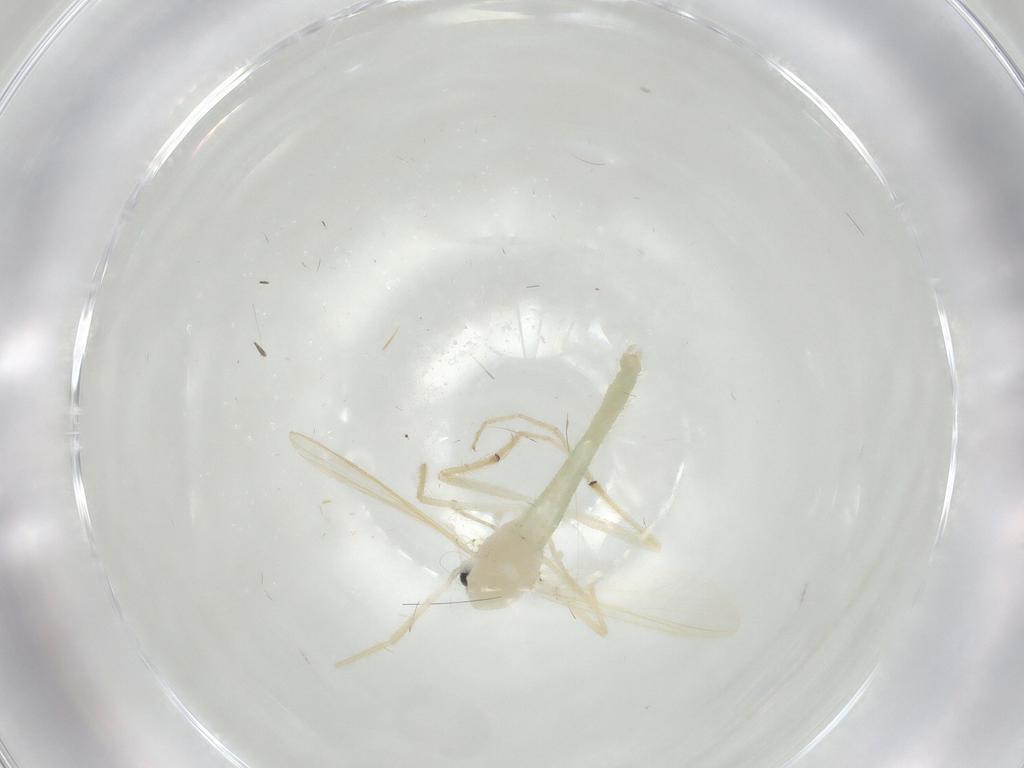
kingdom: Animalia
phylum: Arthropoda
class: Insecta
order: Diptera
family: Chironomidae
